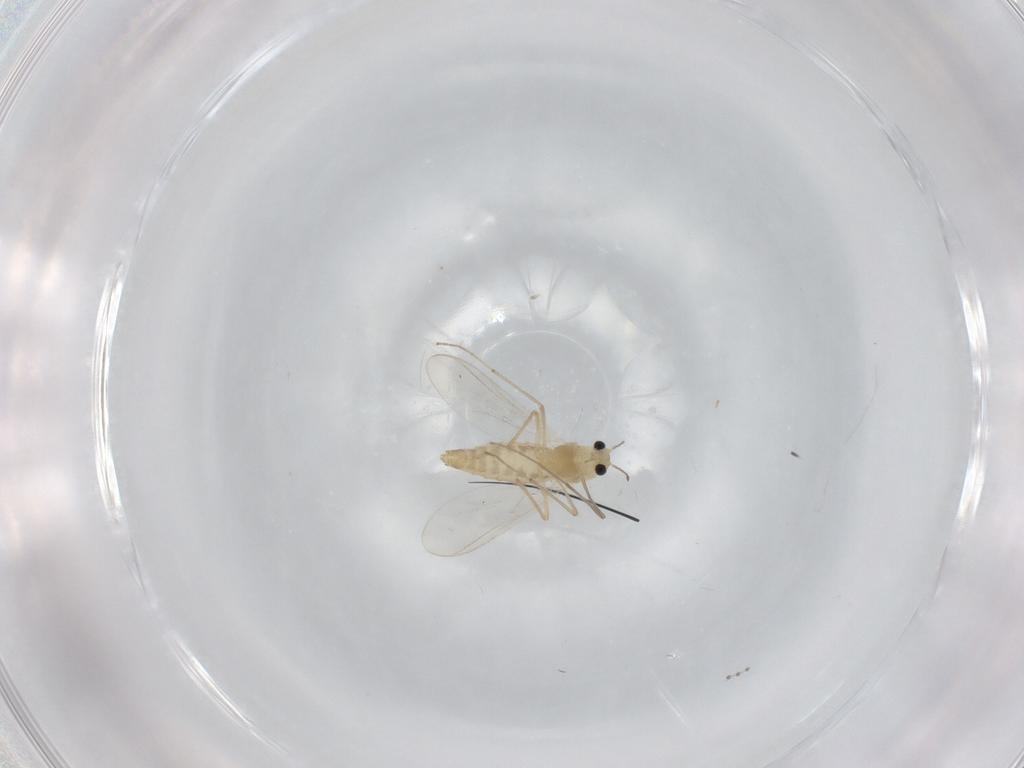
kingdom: Animalia
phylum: Arthropoda
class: Insecta
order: Diptera
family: Chironomidae
